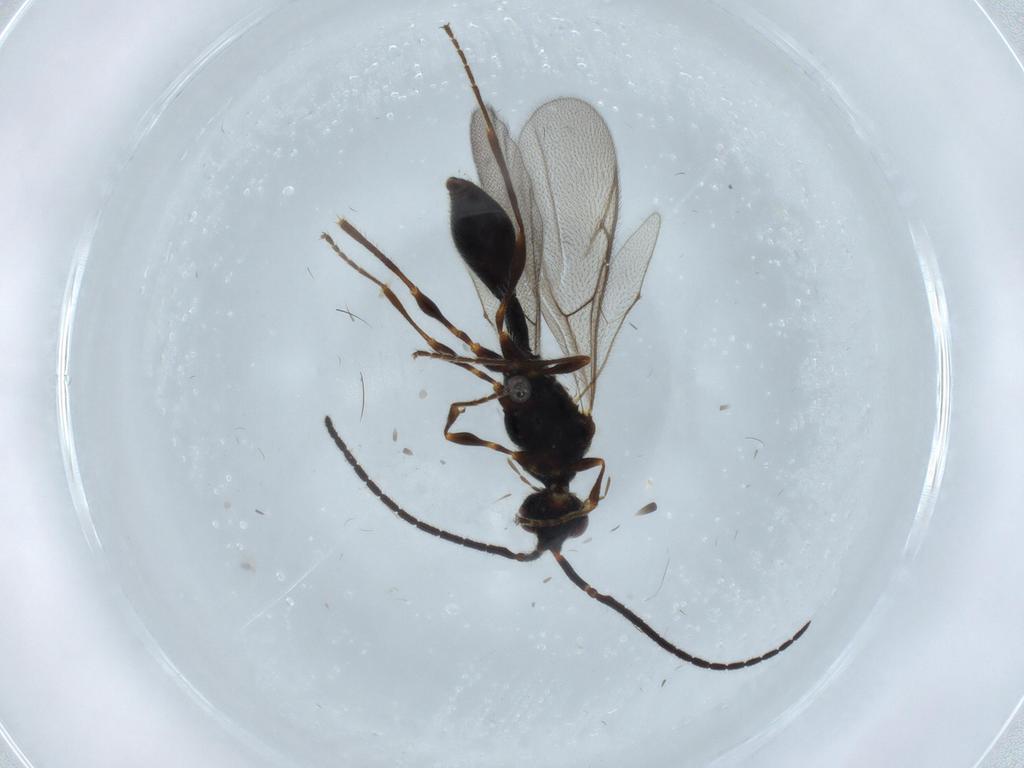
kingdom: Animalia
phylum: Arthropoda
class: Insecta
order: Hymenoptera
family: Diapriidae
